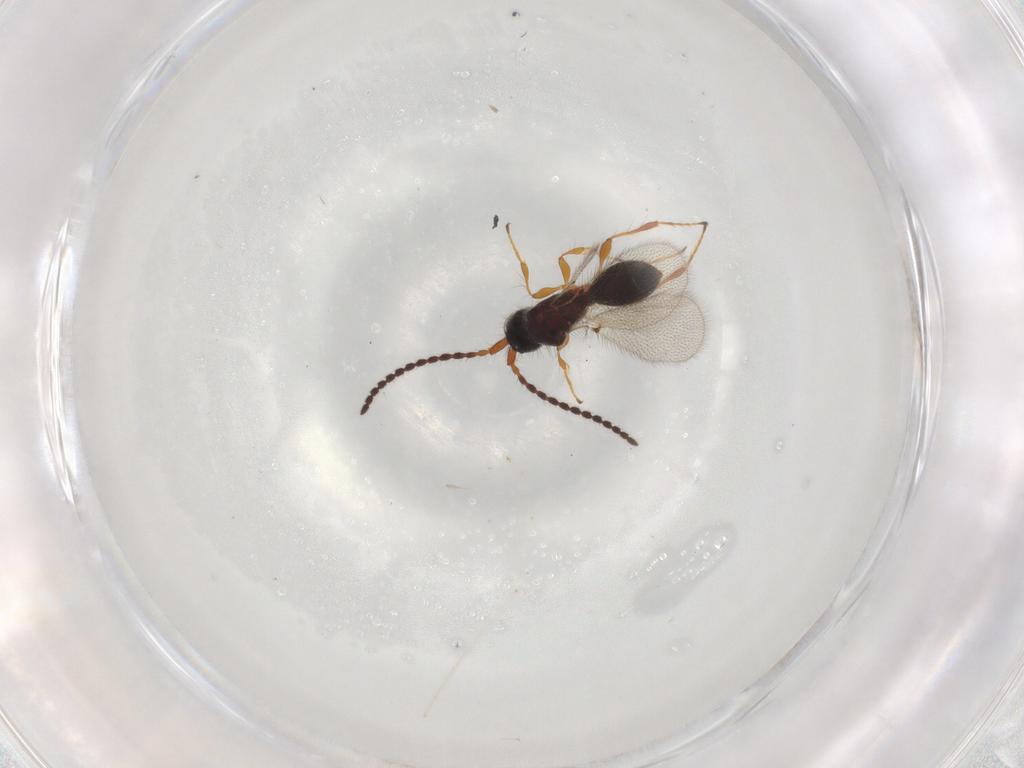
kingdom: Animalia
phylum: Arthropoda
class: Insecta
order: Hymenoptera
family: Diapriidae
